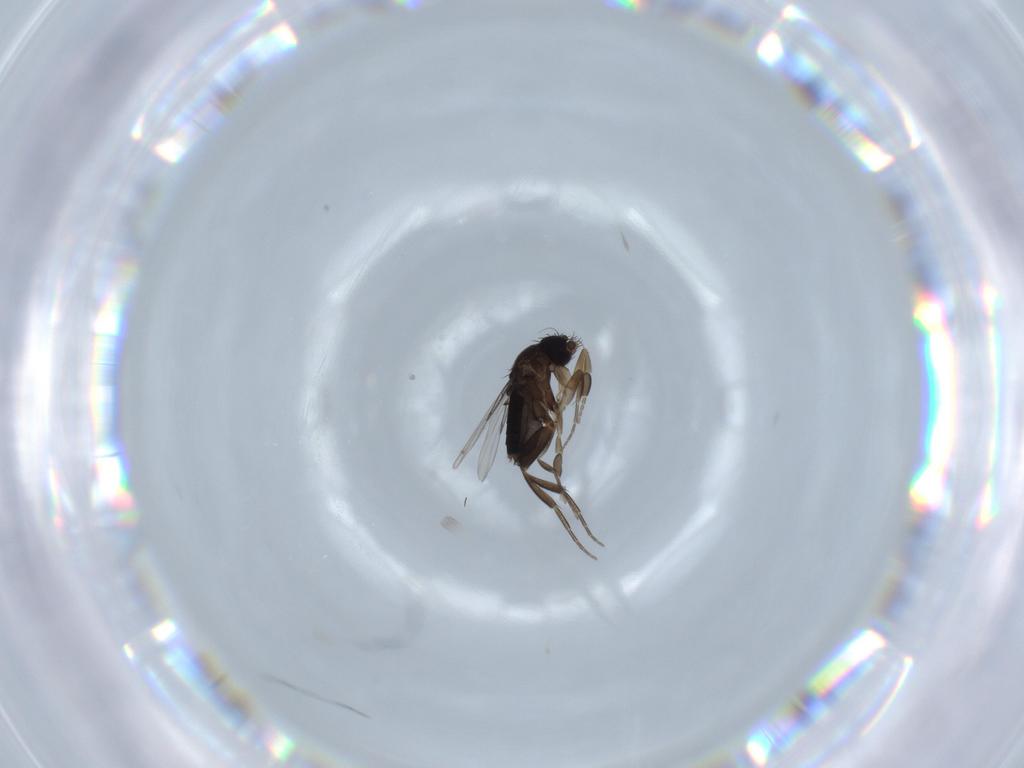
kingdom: Animalia
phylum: Arthropoda
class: Insecta
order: Diptera
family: Phoridae
